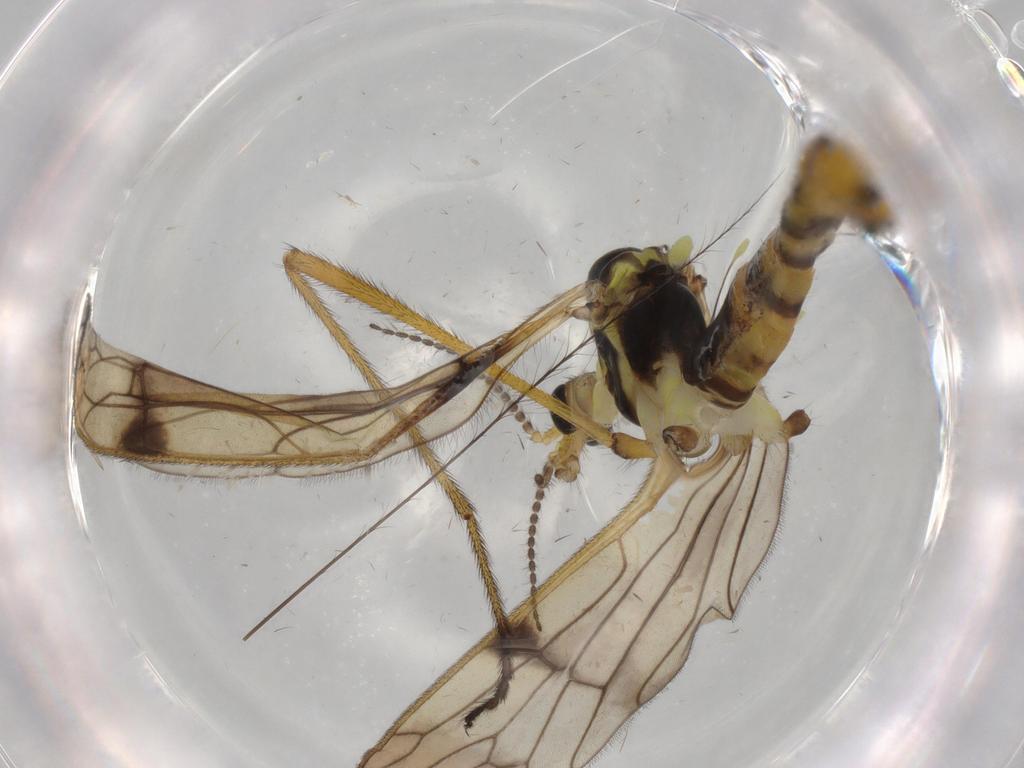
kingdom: Animalia
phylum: Arthropoda
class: Insecta
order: Diptera
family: Limoniidae
